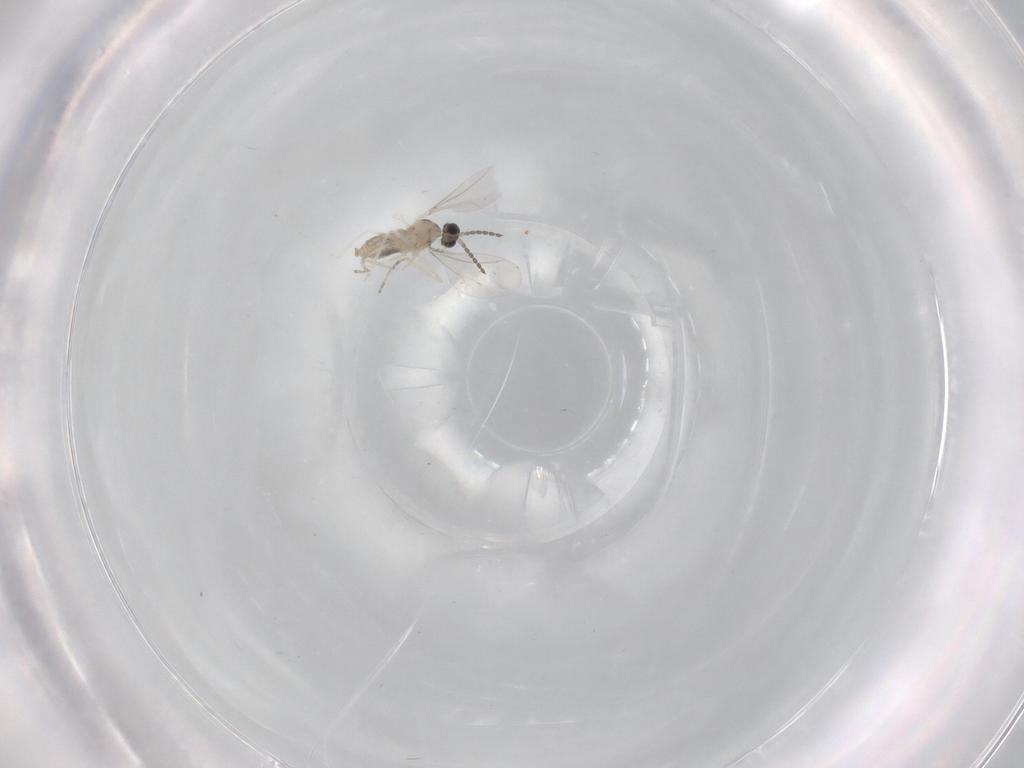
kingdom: Animalia
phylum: Arthropoda
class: Insecta
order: Diptera
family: Cecidomyiidae
